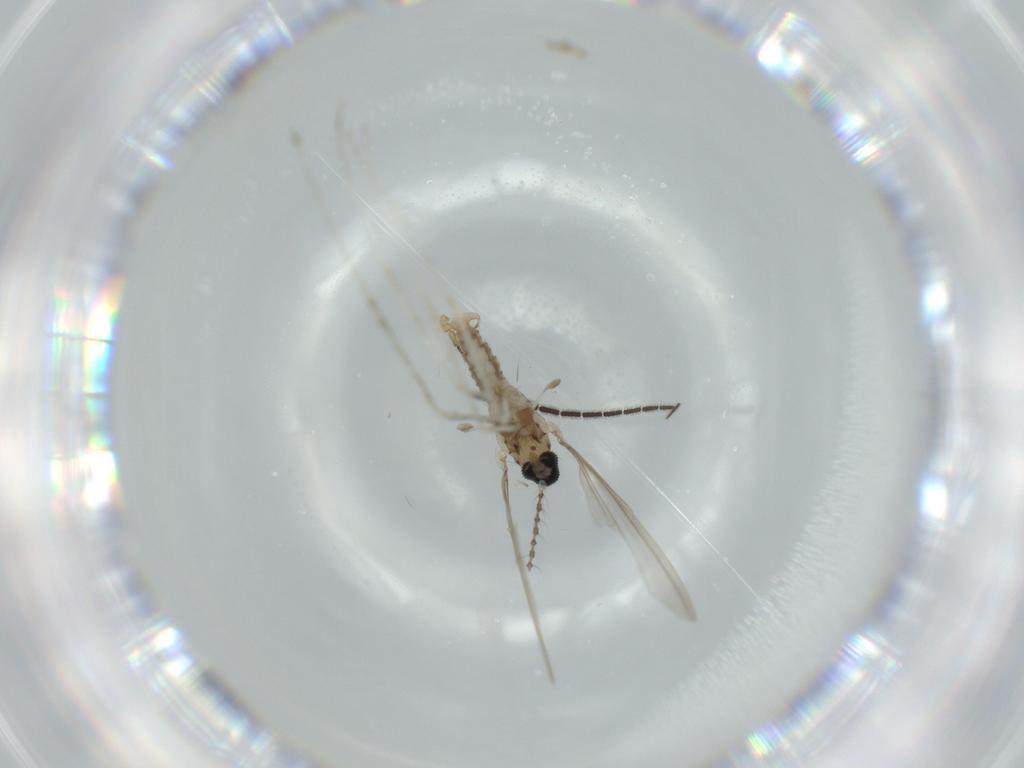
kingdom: Animalia
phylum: Arthropoda
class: Insecta
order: Diptera
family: Cecidomyiidae
